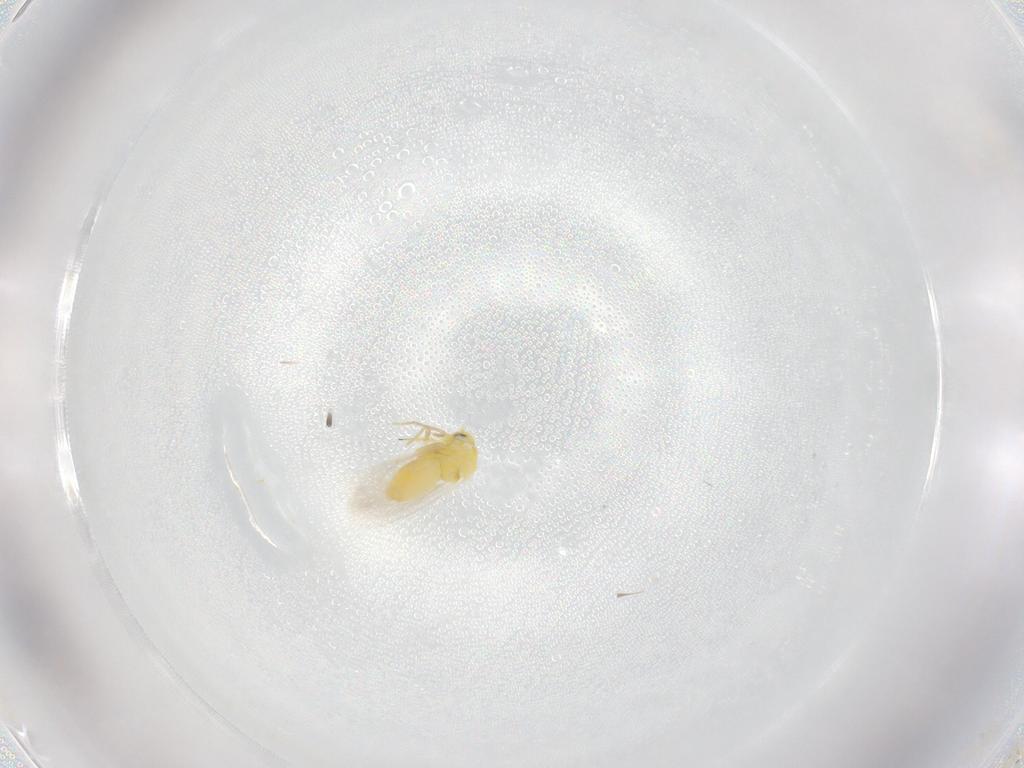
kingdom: Animalia
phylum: Arthropoda
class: Insecta
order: Hemiptera
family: Aleyrodidae
